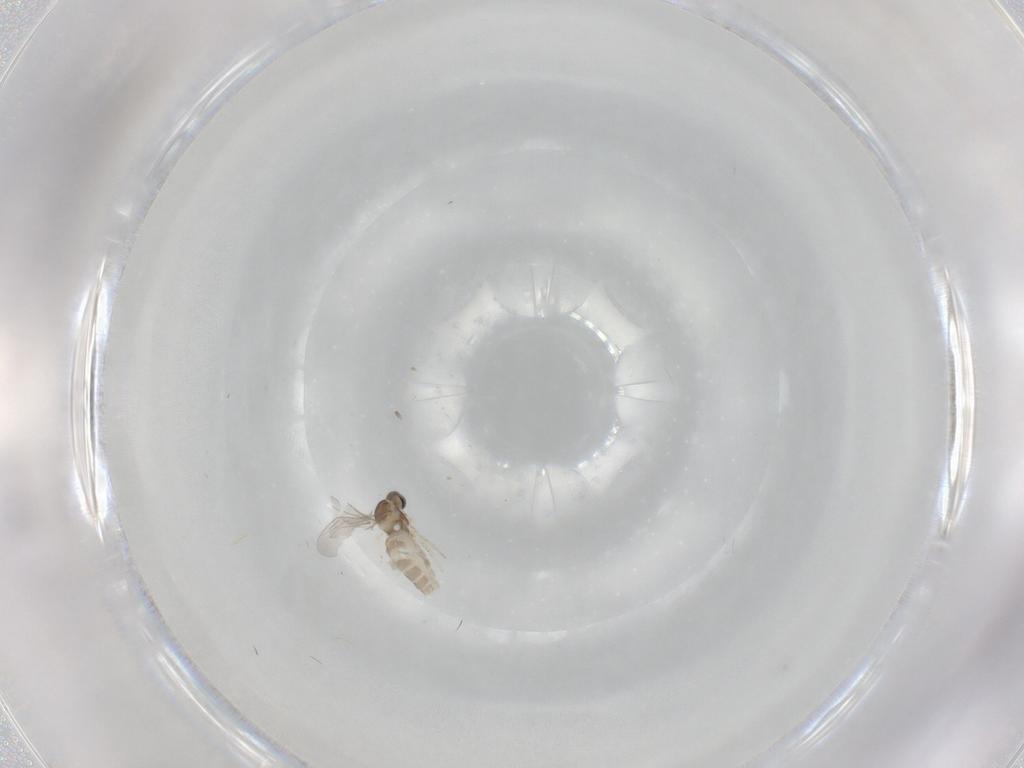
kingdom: Animalia
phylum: Arthropoda
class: Insecta
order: Diptera
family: Cecidomyiidae
